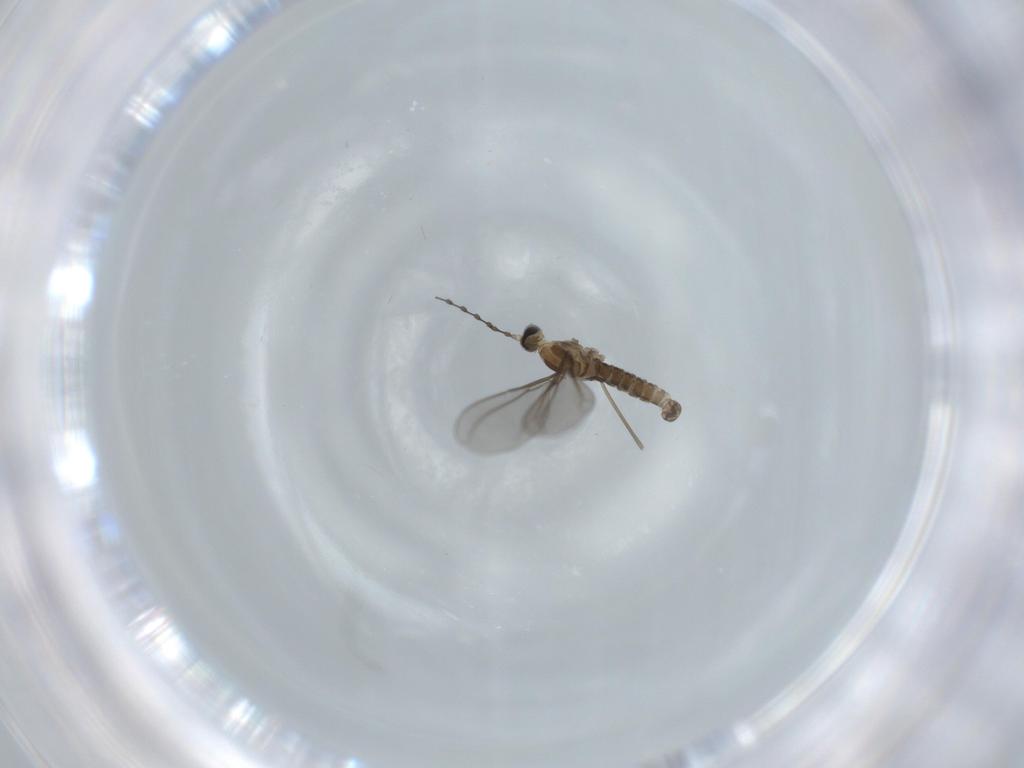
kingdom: Animalia
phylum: Arthropoda
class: Insecta
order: Diptera
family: Cecidomyiidae
